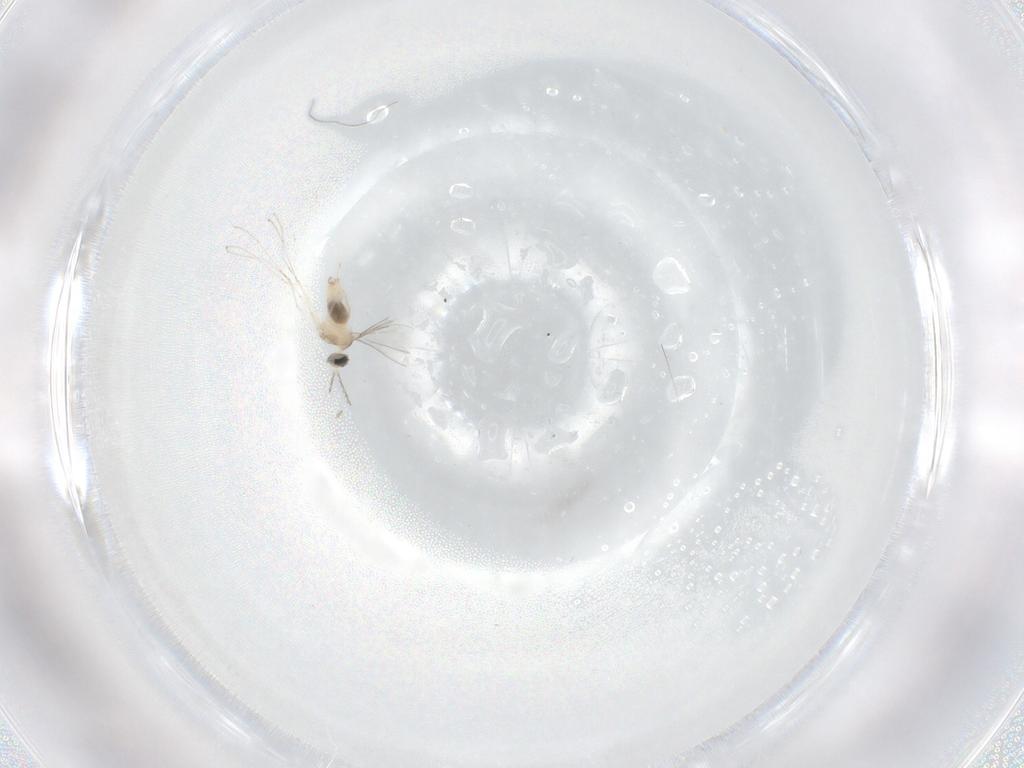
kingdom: Animalia
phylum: Arthropoda
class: Insecta
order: Diptera
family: Cecidomyiidae
